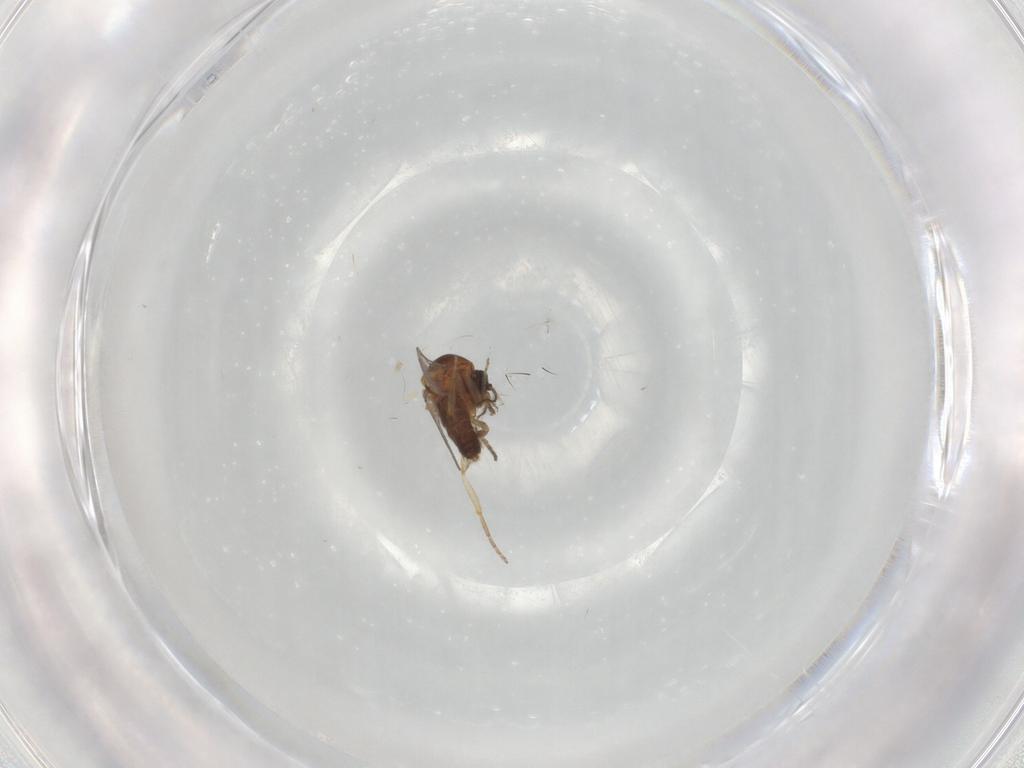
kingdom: Animalia
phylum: Arthropoda
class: Insecta
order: Diptera
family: Ceratopogonidae
